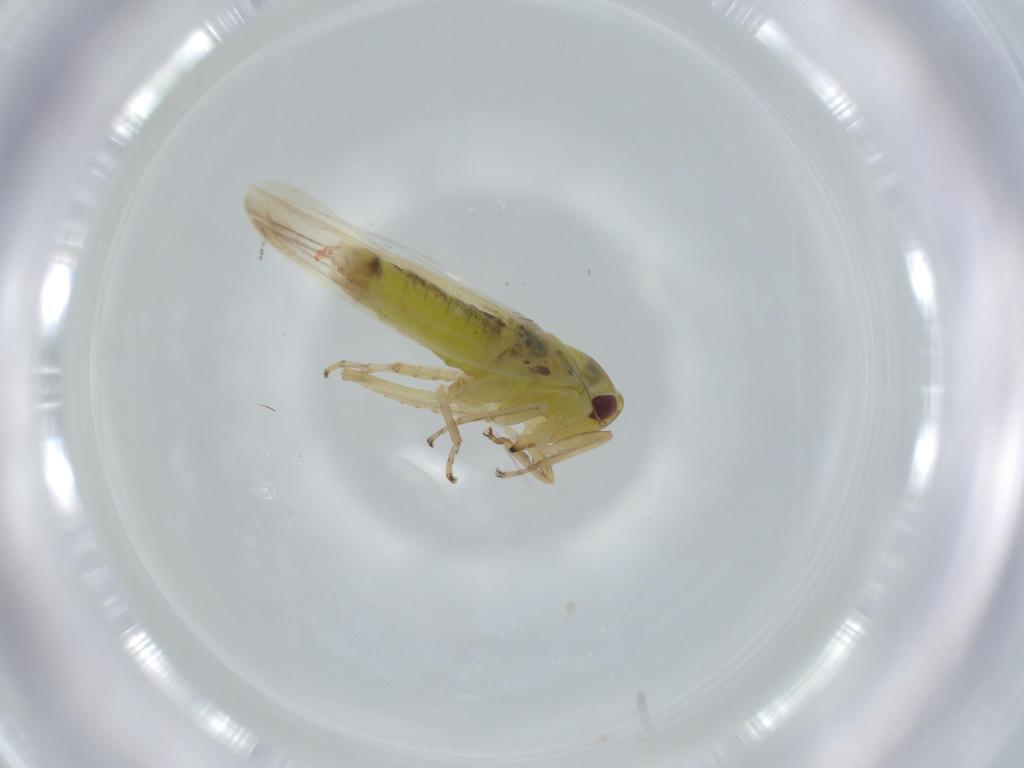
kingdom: Animalia
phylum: Arthropoda
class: Insecta
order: Hemiptera
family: Cicadellidae
